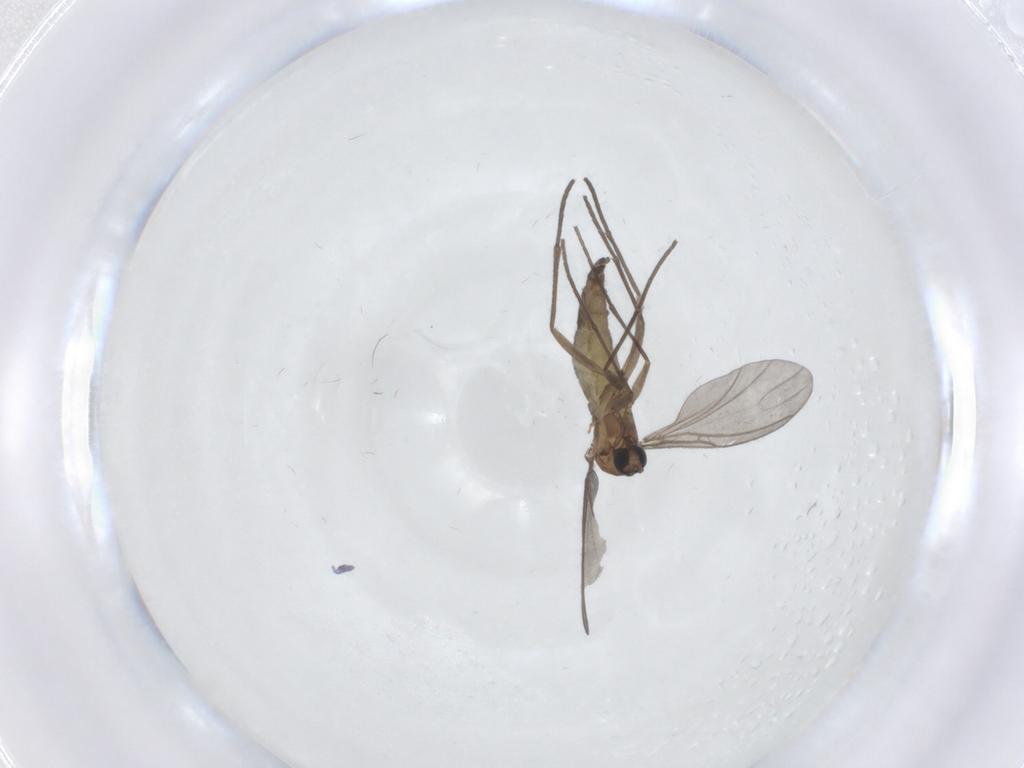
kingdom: Animalia
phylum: Arthropoda
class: Insecta
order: Diptera
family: Sciaridae
